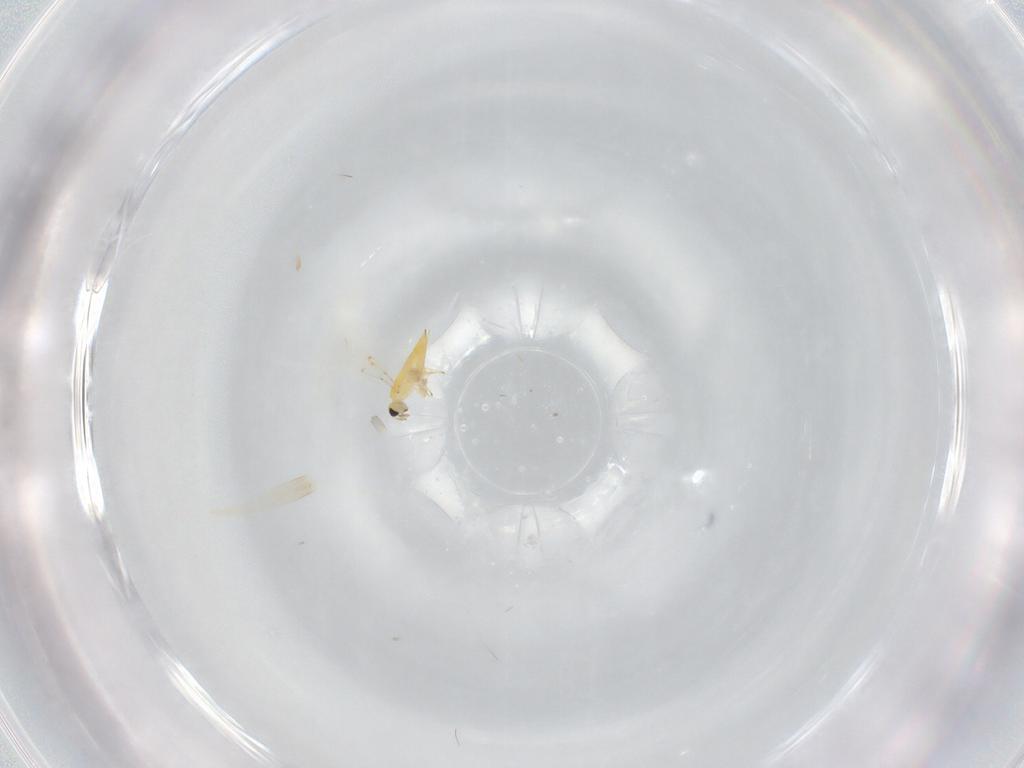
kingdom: Animalia
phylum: Arthropoda
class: Insecta
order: Hymenoptera
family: Trichogrammatidae
